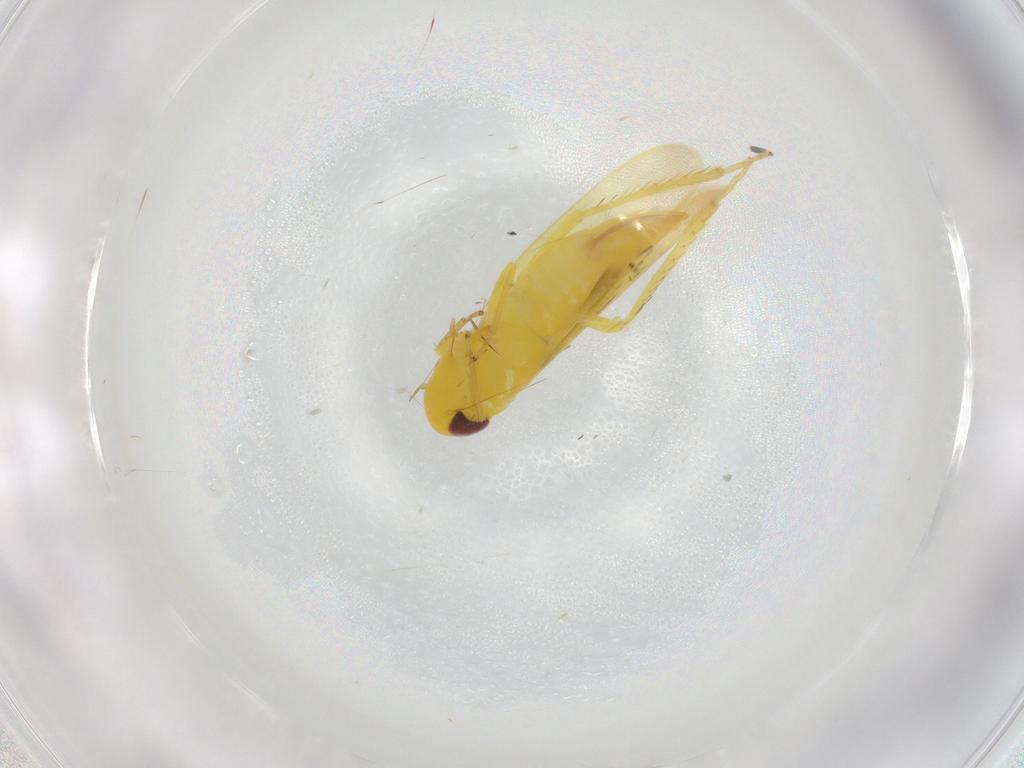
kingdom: Animalia
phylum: Arthropoda
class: Insecta
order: Hemiptera
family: Cicadellidae
